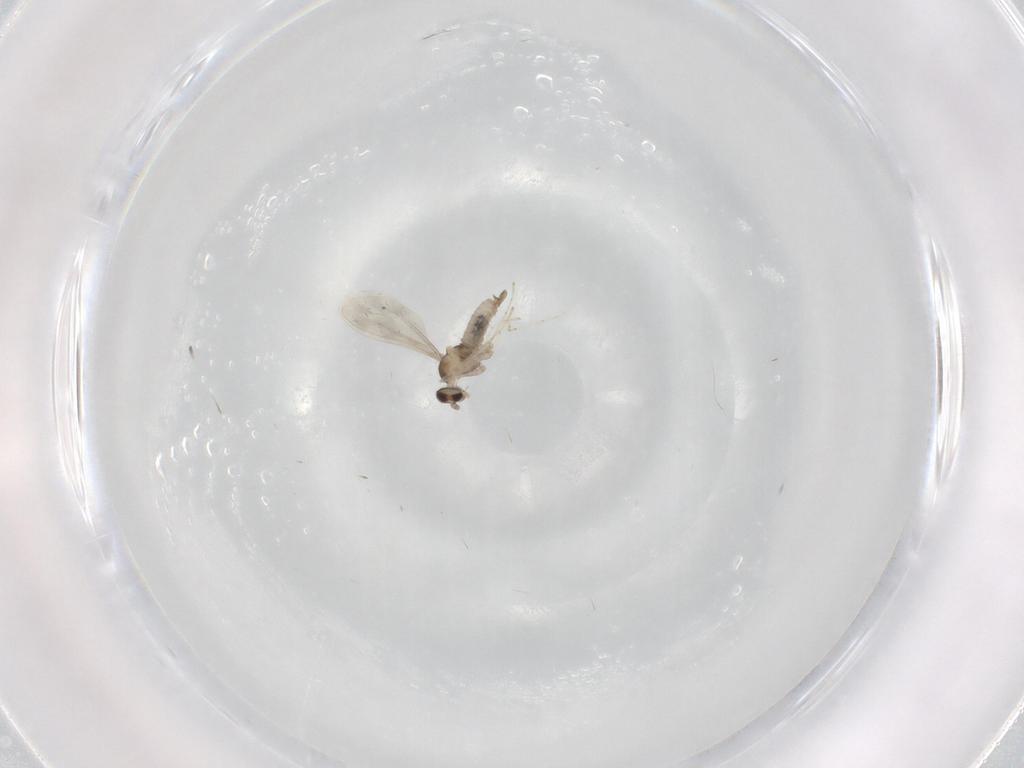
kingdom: Animalia
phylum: Arthropoda
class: Insecta
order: Diptera
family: Cecidomyiidae
